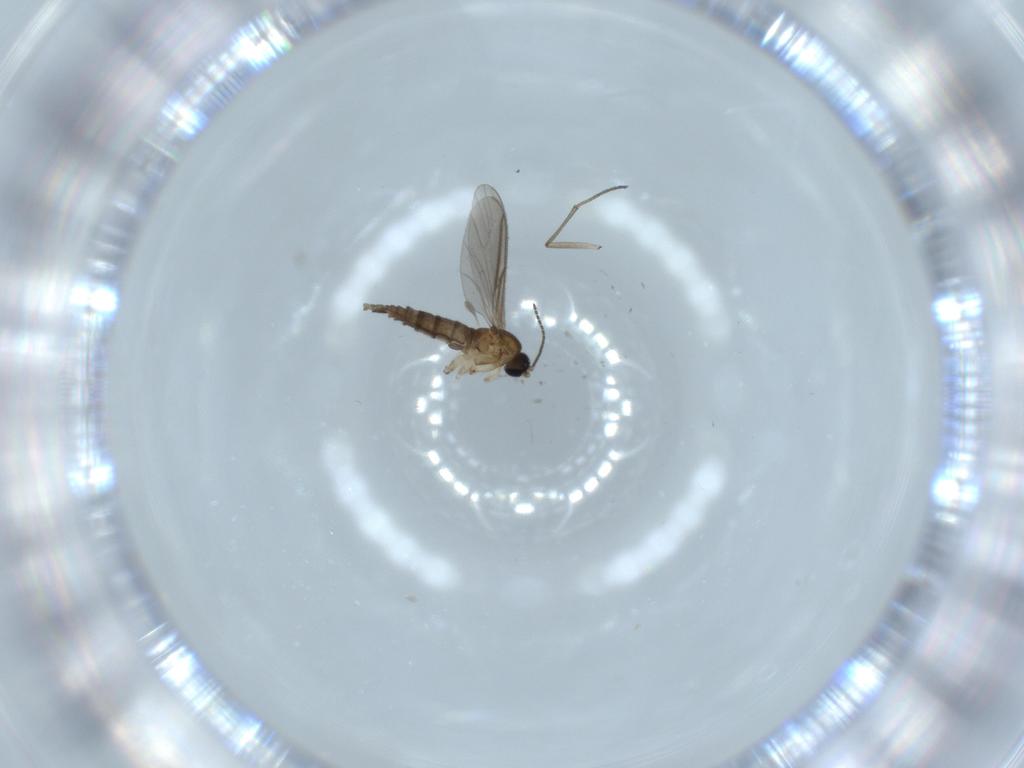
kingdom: Animalia
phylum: Arthropoda
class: Insecta
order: Diptera
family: Sciaridae
